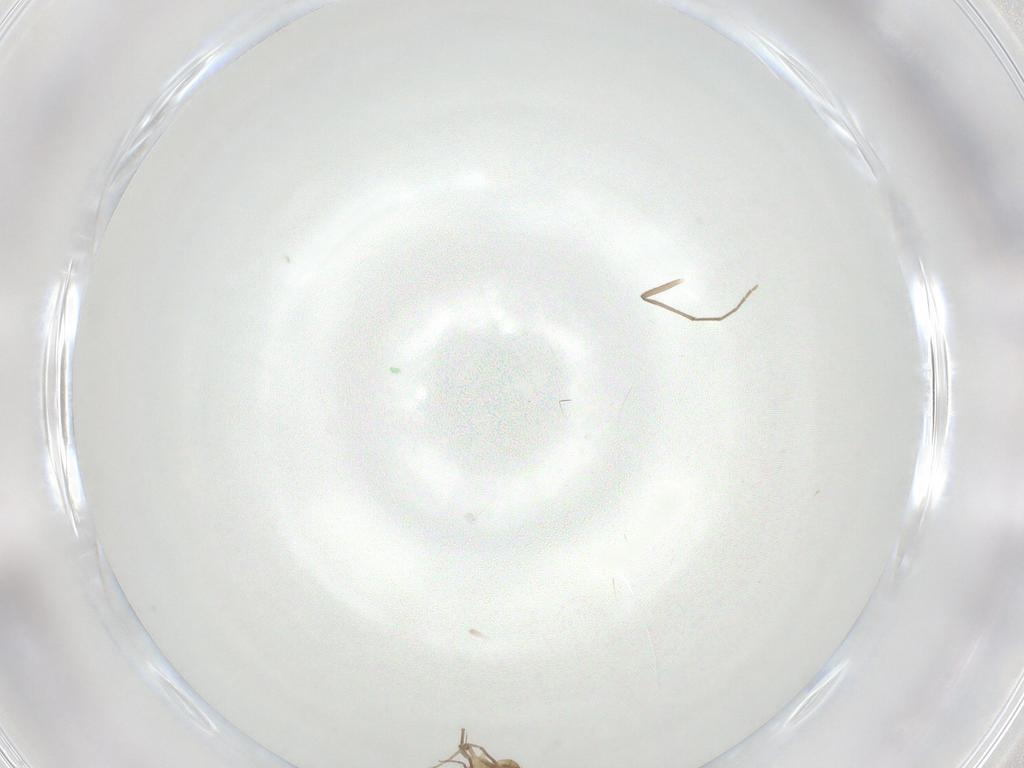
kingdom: Animalia
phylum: Arthropoda
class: Insecta
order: Diptera
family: Chironomidae
